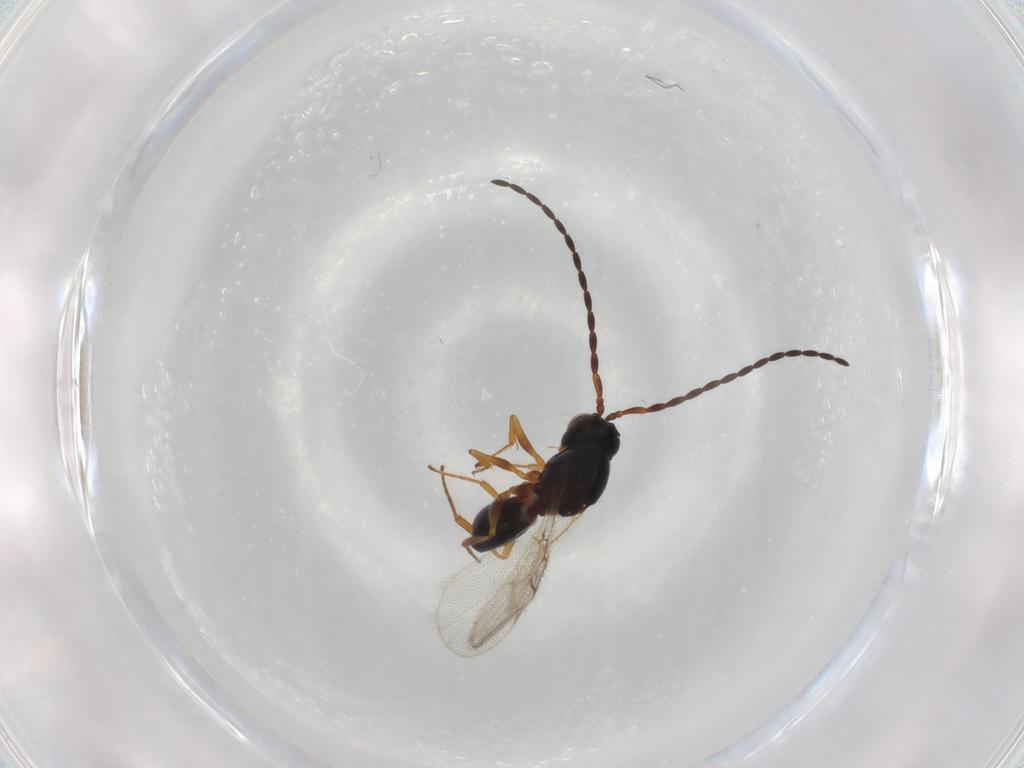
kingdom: Animalia
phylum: Arthropoda
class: Insecta
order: Hymenoptera
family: Figitidae
